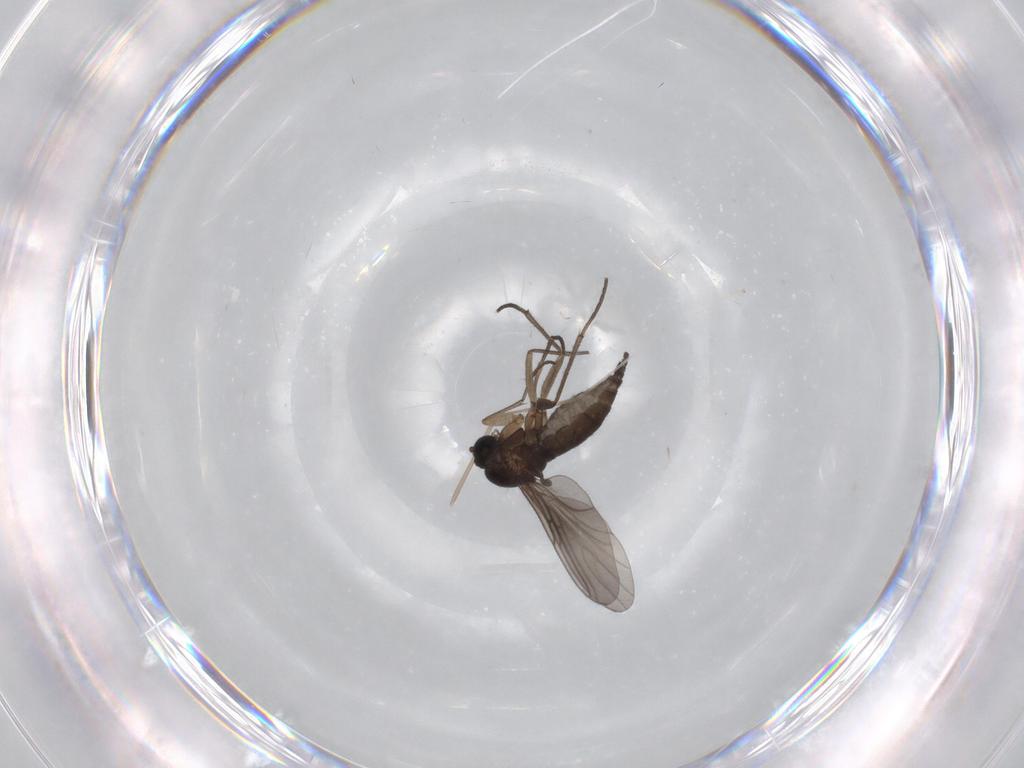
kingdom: Animalia
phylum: Arthropoda
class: Insecta
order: Diptera
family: Sciaridae
